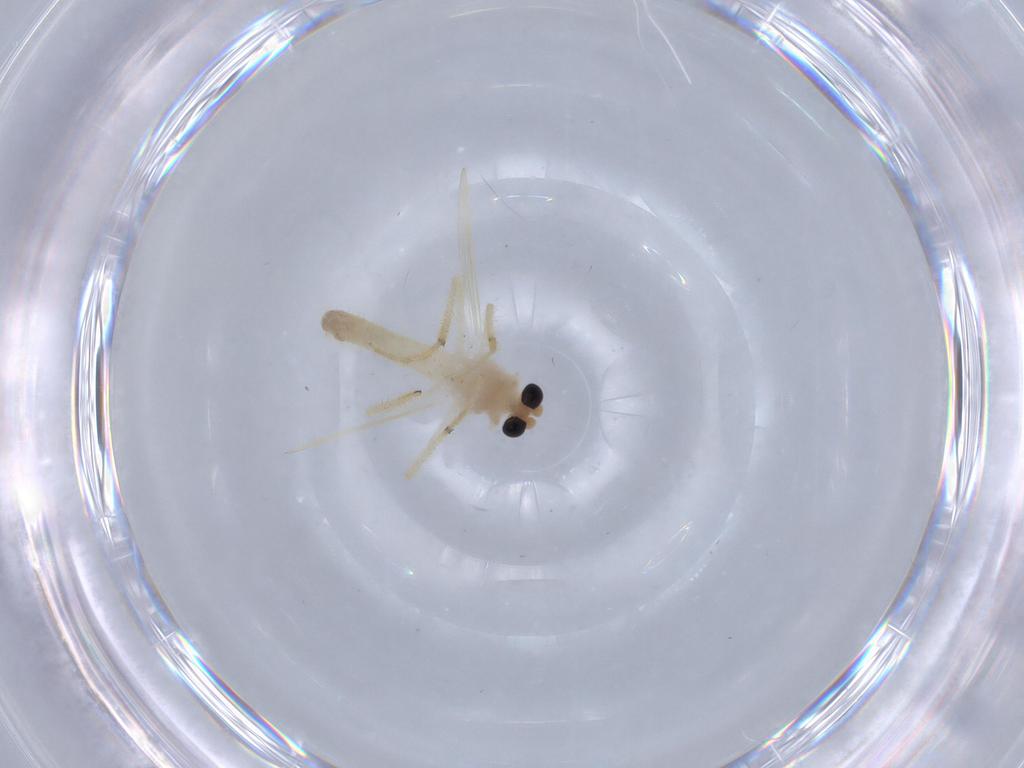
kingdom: Animalia
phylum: Arthropoda
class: Insecta
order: Diptera
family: Chironomidae
